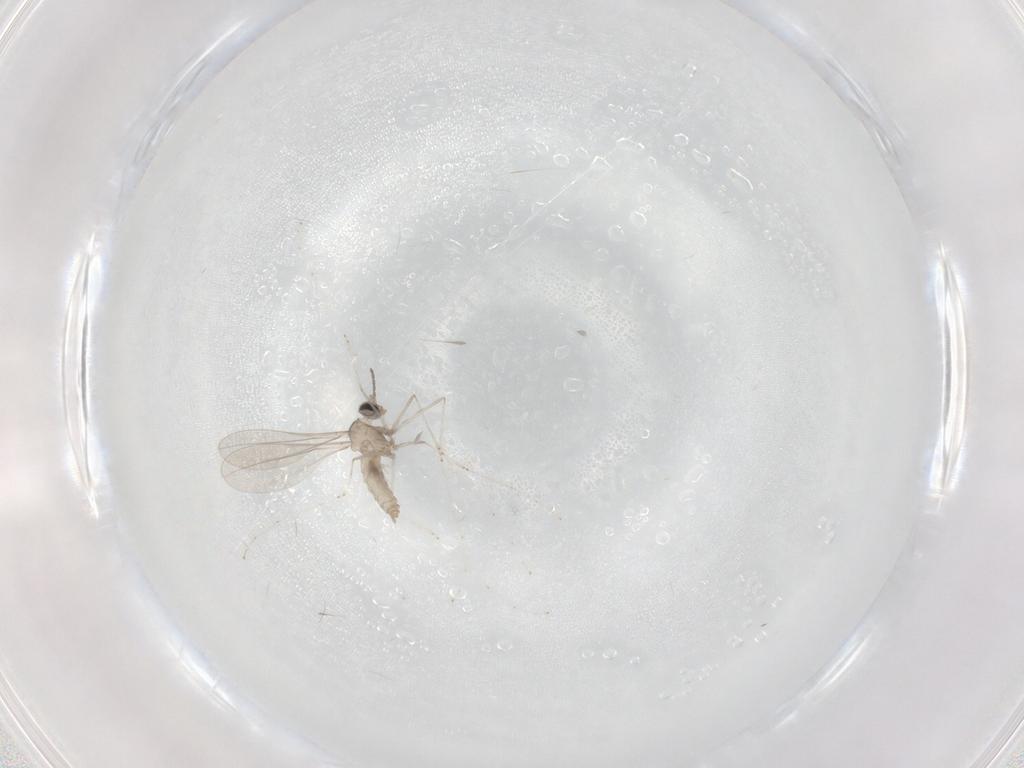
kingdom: Animalia
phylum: Arthropoda
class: Insecta
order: Diptera
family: Cecidomyiidae
